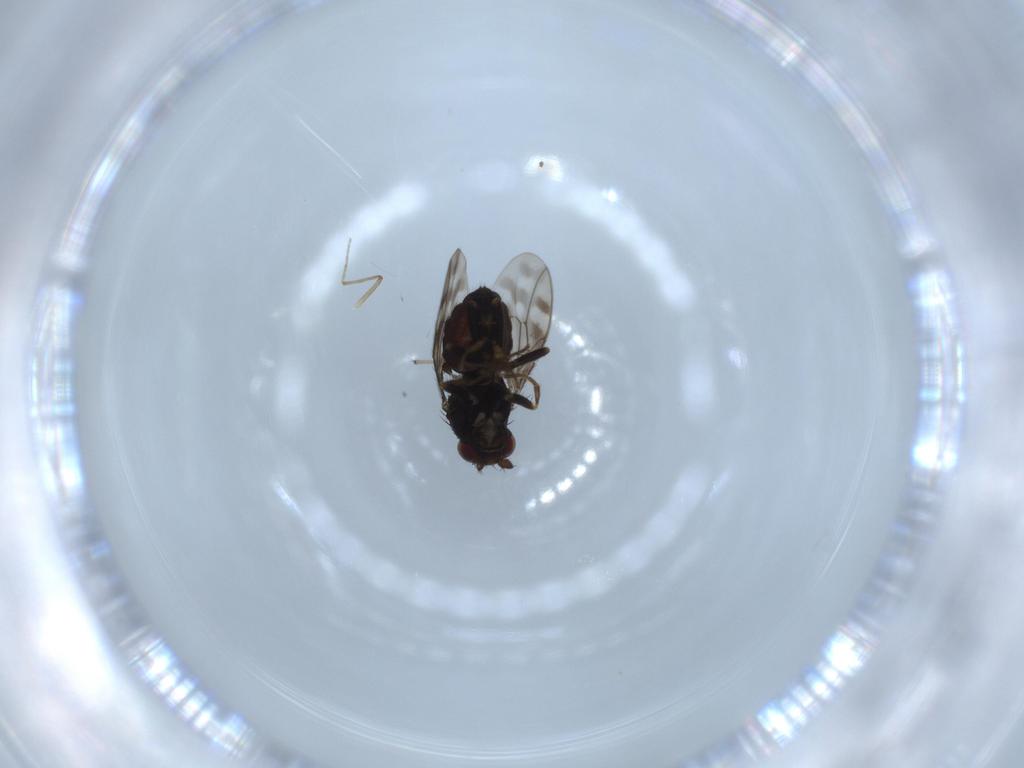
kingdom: Animalia
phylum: Arthropoda
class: Insecta
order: Diptera
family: Sphaeroceridae
